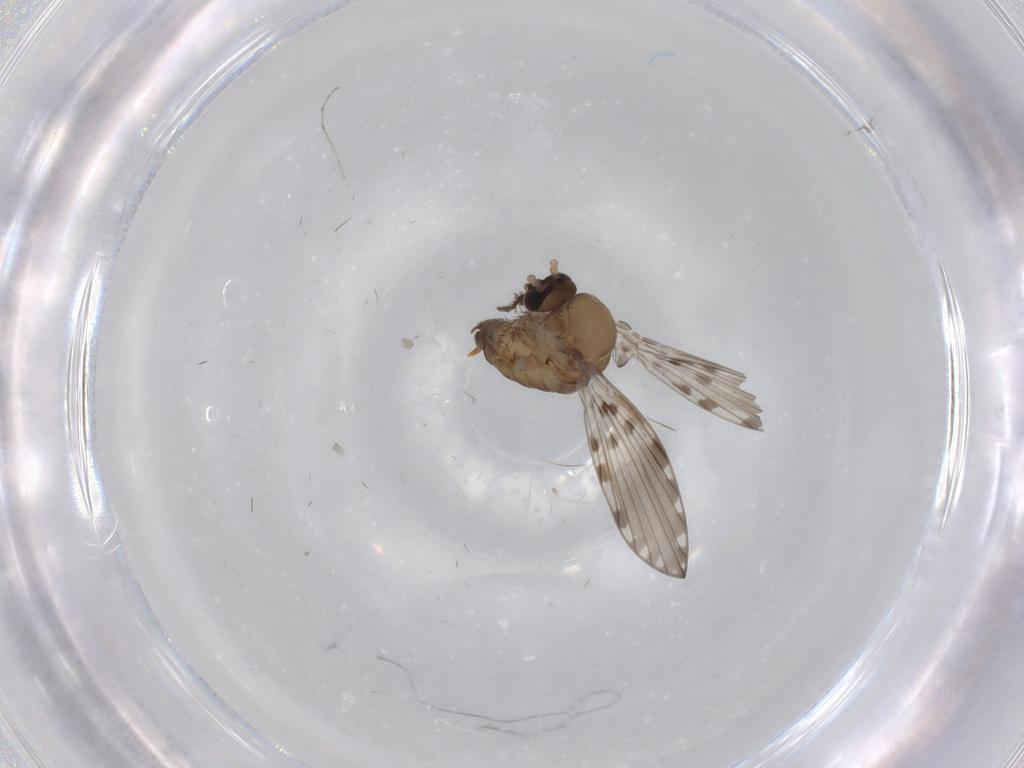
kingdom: Animalia
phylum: Arthropoda
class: Insecta
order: Diptera
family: Psychodidae
